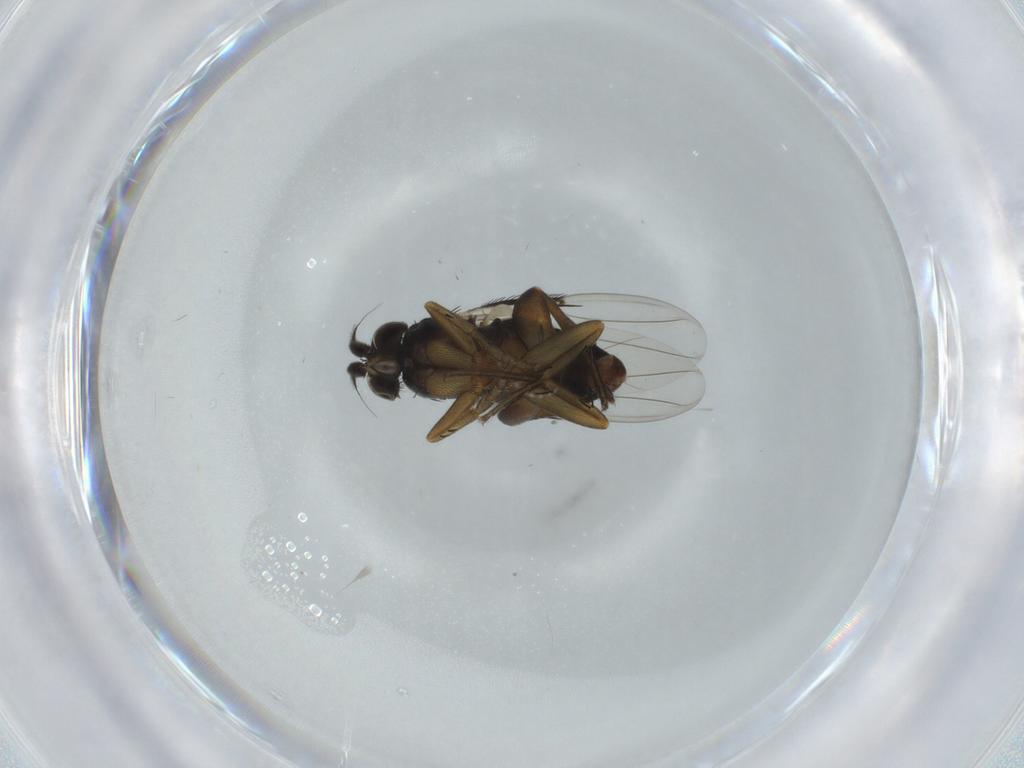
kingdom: Animalia
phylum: Arthropoda
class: Insecta
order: Diptera
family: Phoridae
